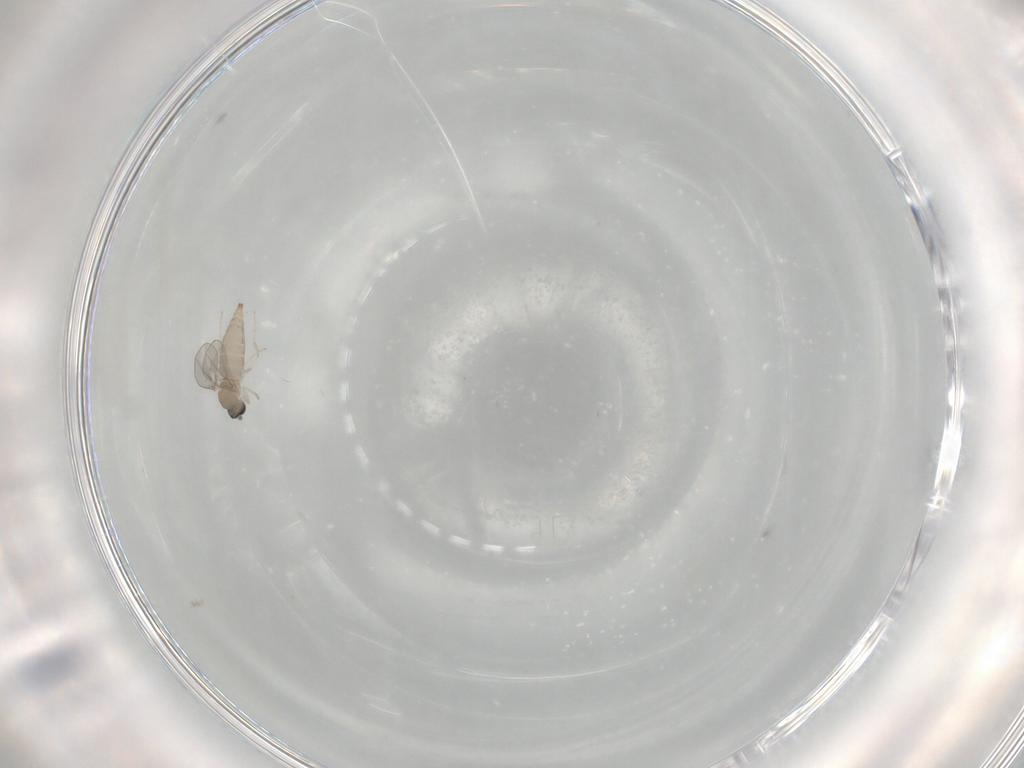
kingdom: Animalia
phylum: Arthropoda
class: Insecta
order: Diptera
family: Cecidomyiidae
